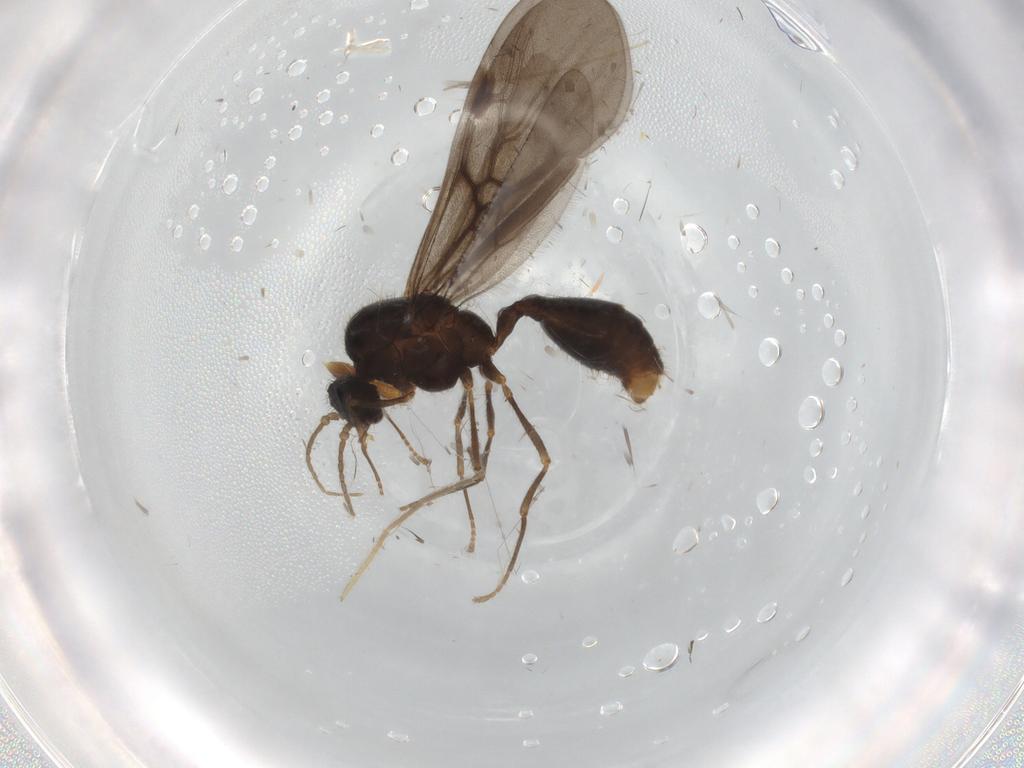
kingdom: Animalia
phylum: Arthropoda
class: Insecta
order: Hymenoptera
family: Formicidae
